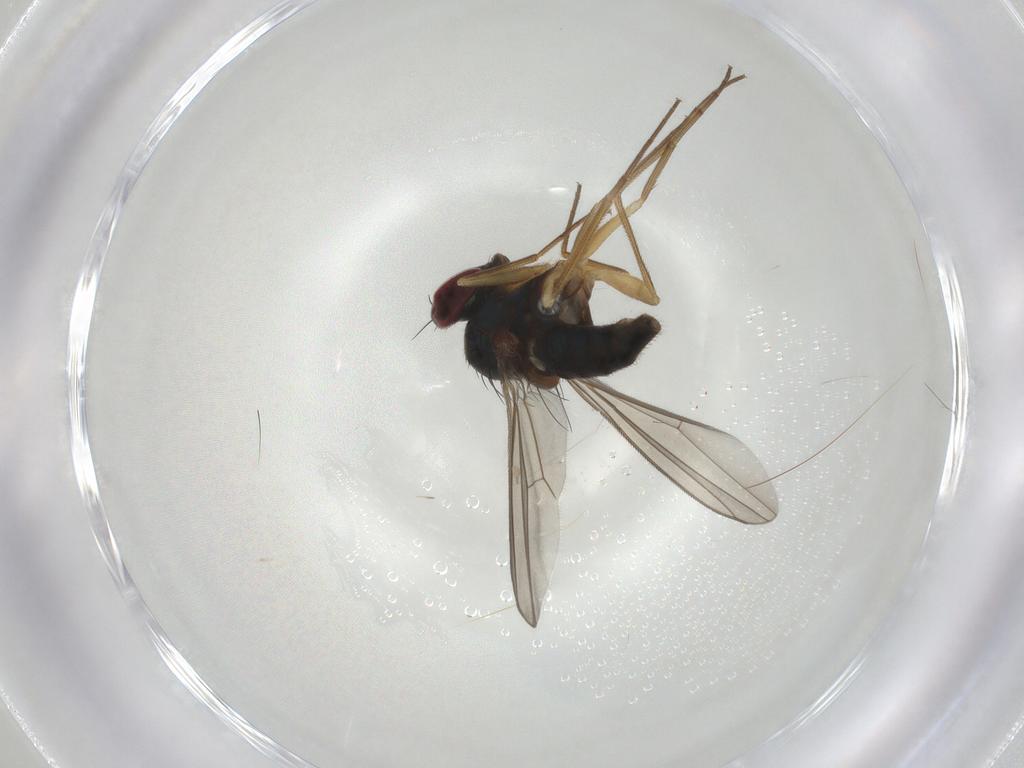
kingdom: Animalia
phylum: Arthropoda
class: Insecta
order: Diptera
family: Dolichopodidae
